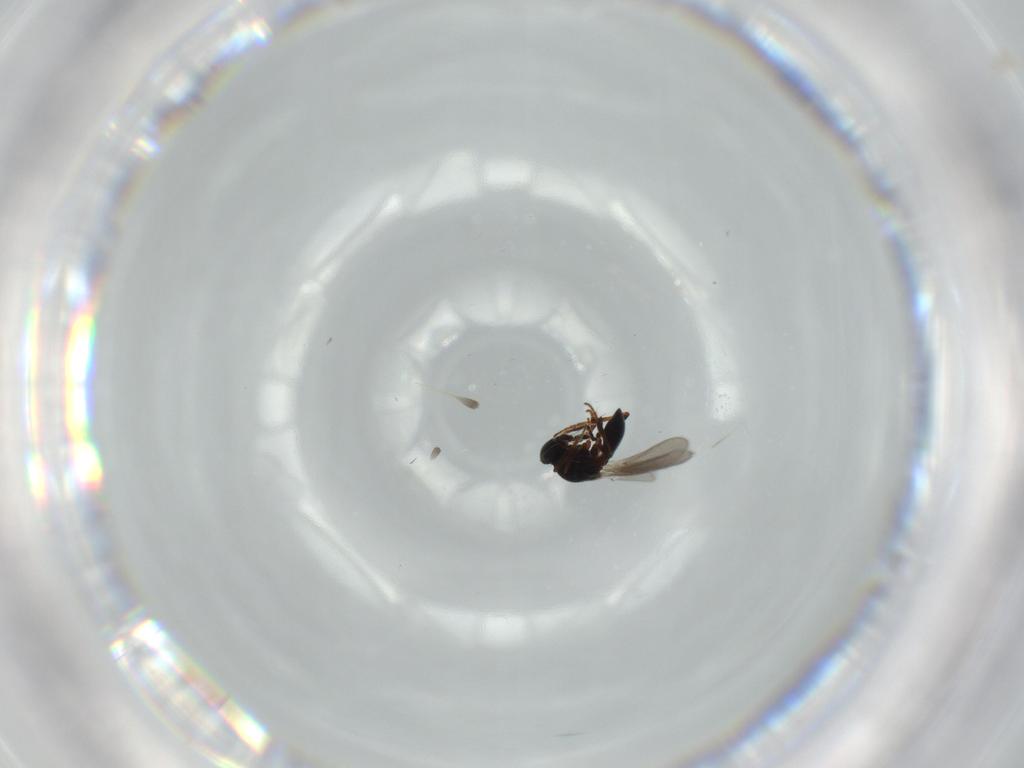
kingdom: Animalia
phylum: Arthropoda
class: Insecta
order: Hymenoptera
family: Platygastridae
